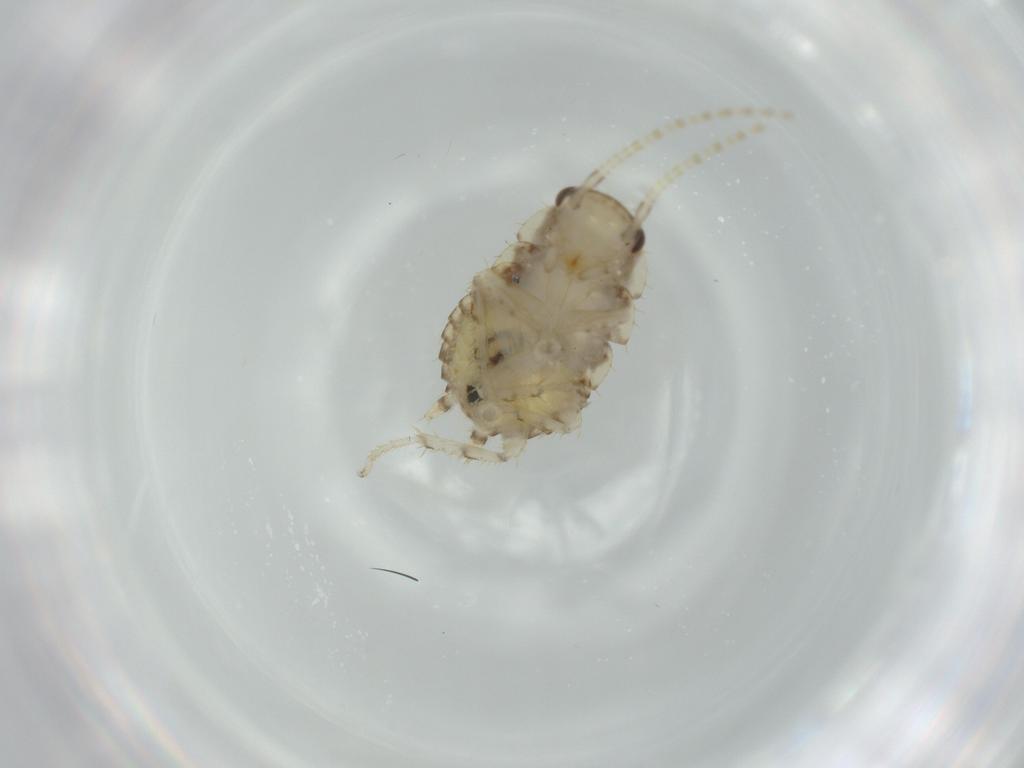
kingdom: Animalia
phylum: Arthropoda
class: Insecta
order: Blattodea
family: Ectobiidae
